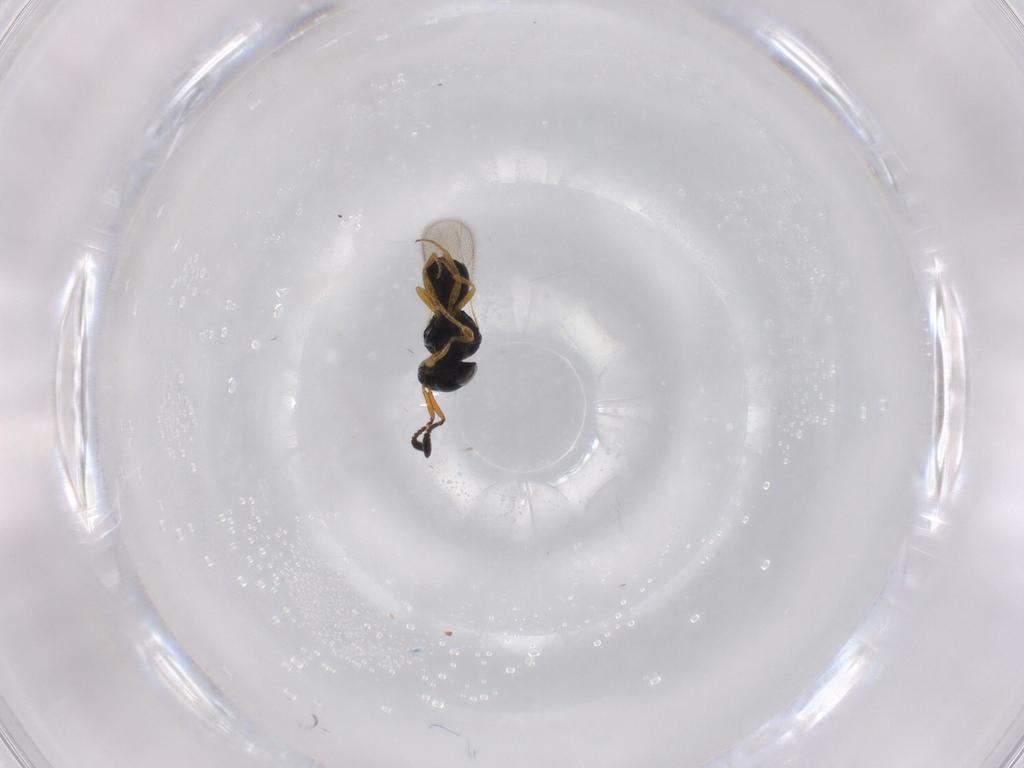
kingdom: Animalia
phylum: Arthropoda
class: Insecta
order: Hymenoptera
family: Scelionidae
